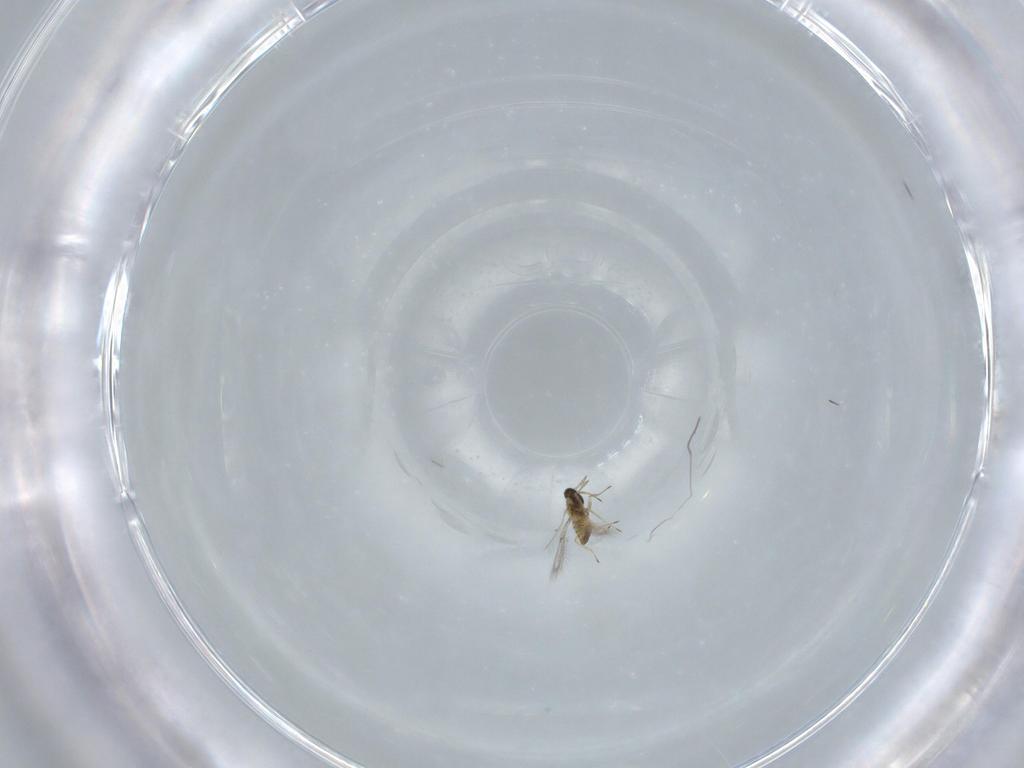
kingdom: Animalia
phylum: Arthropoda
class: Insecta
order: Hymenoptera
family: Trichogrammatidae
